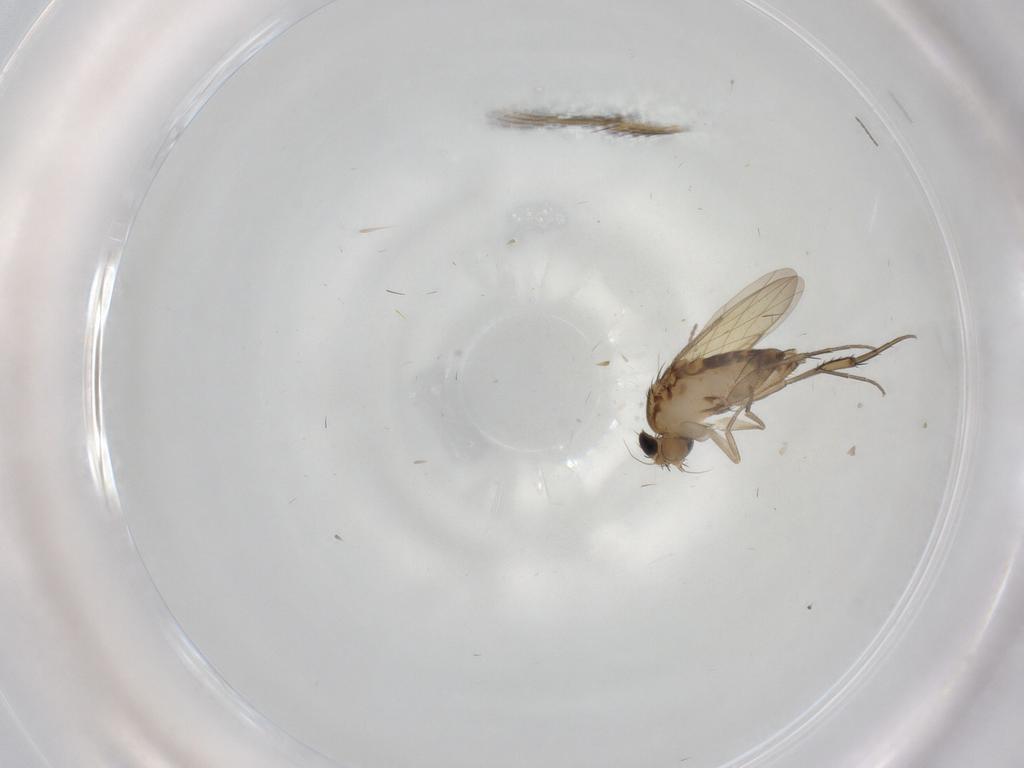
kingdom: Animalia
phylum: Arthropoda
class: Insecta
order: Diptera
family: Phoridae
